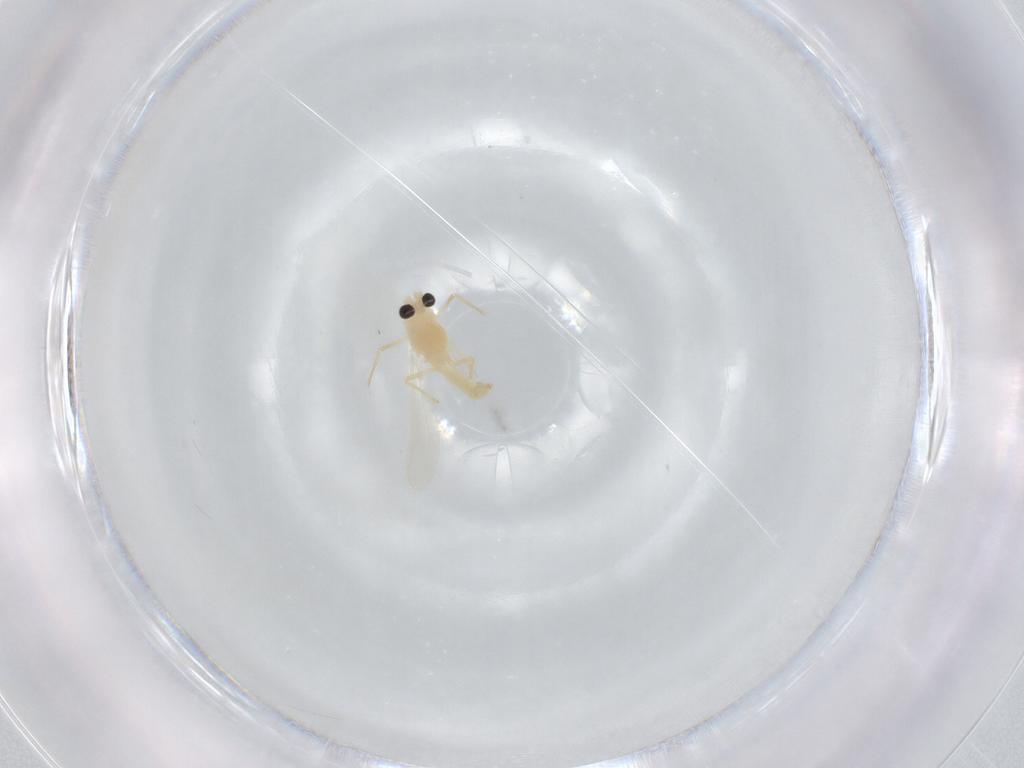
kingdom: Animalia
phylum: Arthropoda
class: Insecta
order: Diptera
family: Chironomidae
